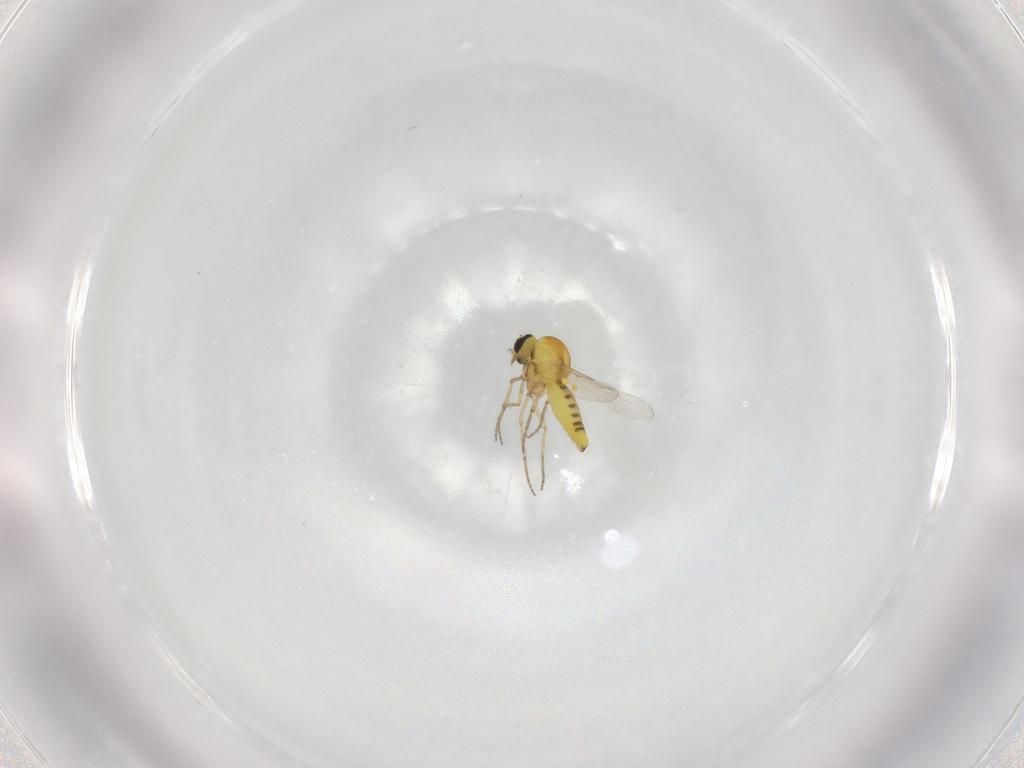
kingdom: Animalia
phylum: Arthropoda
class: Insecta
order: Diptera
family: Ceratopogonidae
